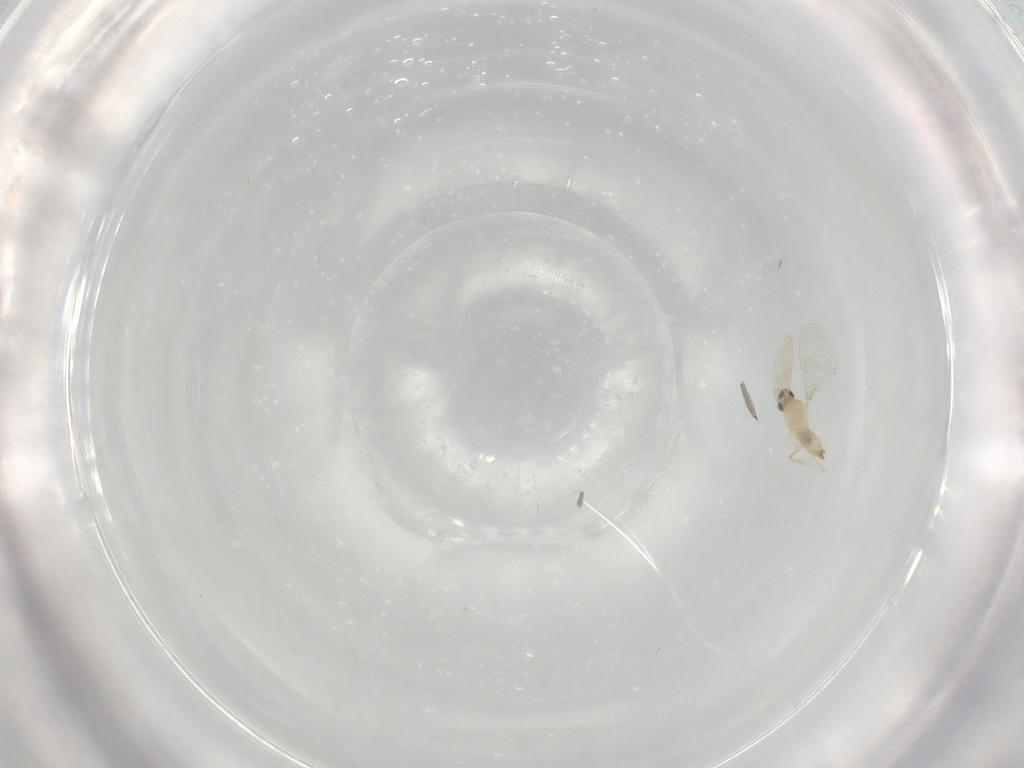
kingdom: Animalia
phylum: Arthropoda
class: Insecta
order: Diptera
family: Cecidomyiidae
